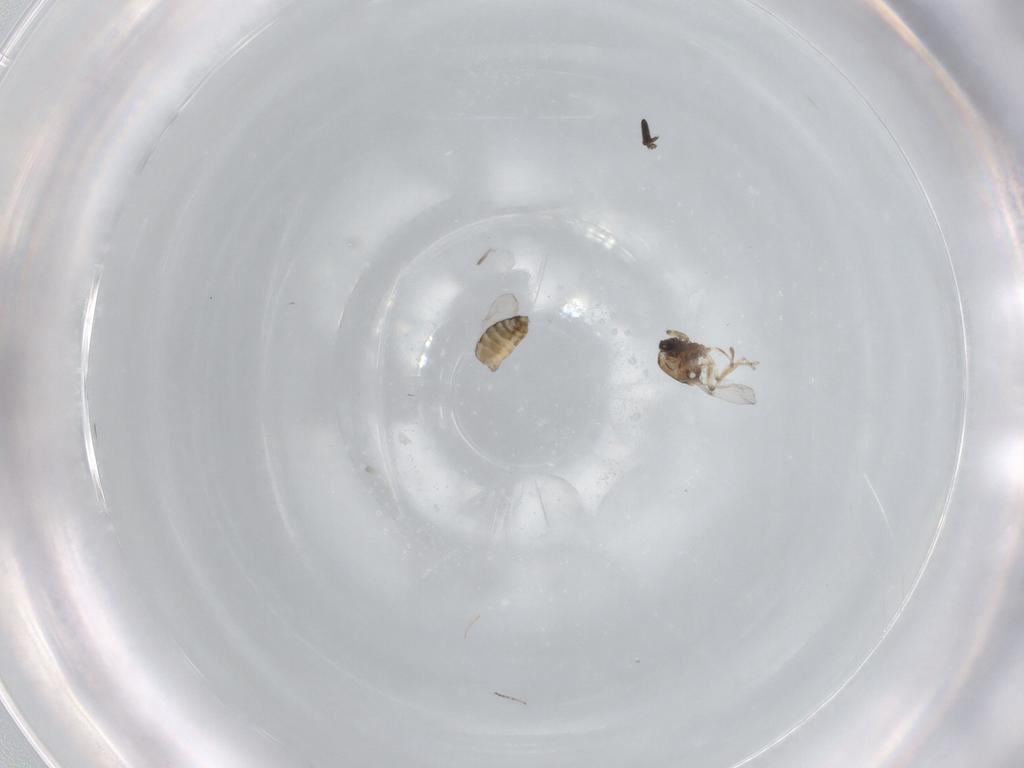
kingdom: Animalia
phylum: Arthropoda
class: Insecta
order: Diptera
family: Ceratopogonidae
